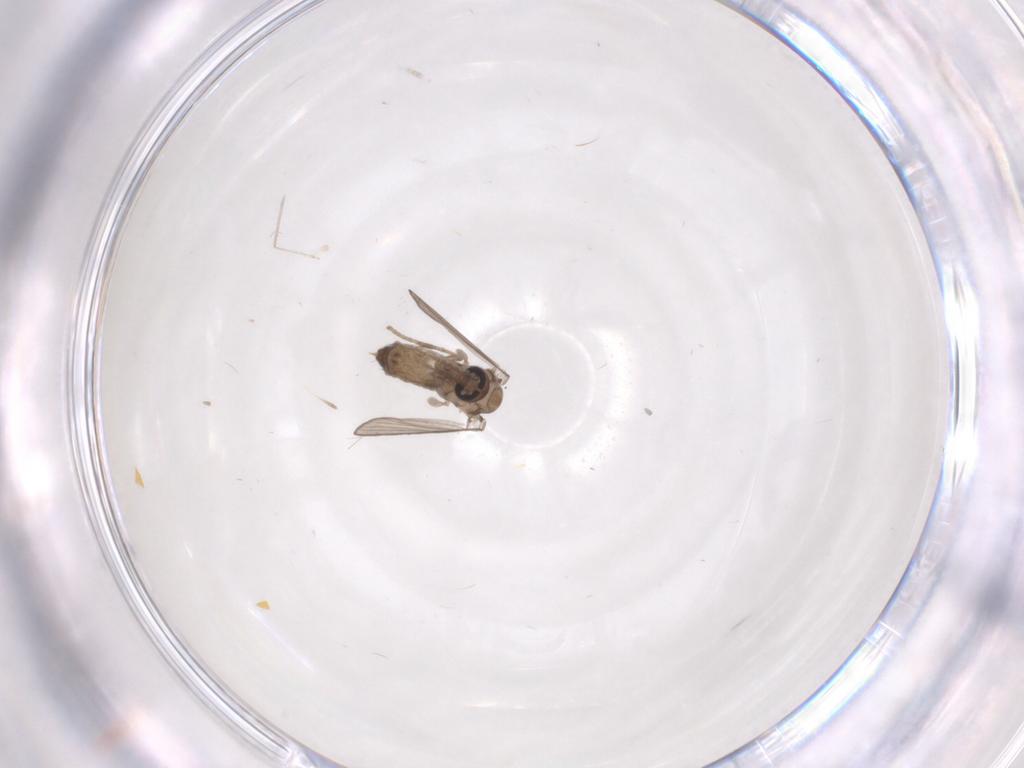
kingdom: Animalia
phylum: Arthropoda
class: Insecta
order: Diptera
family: Psychodidae
